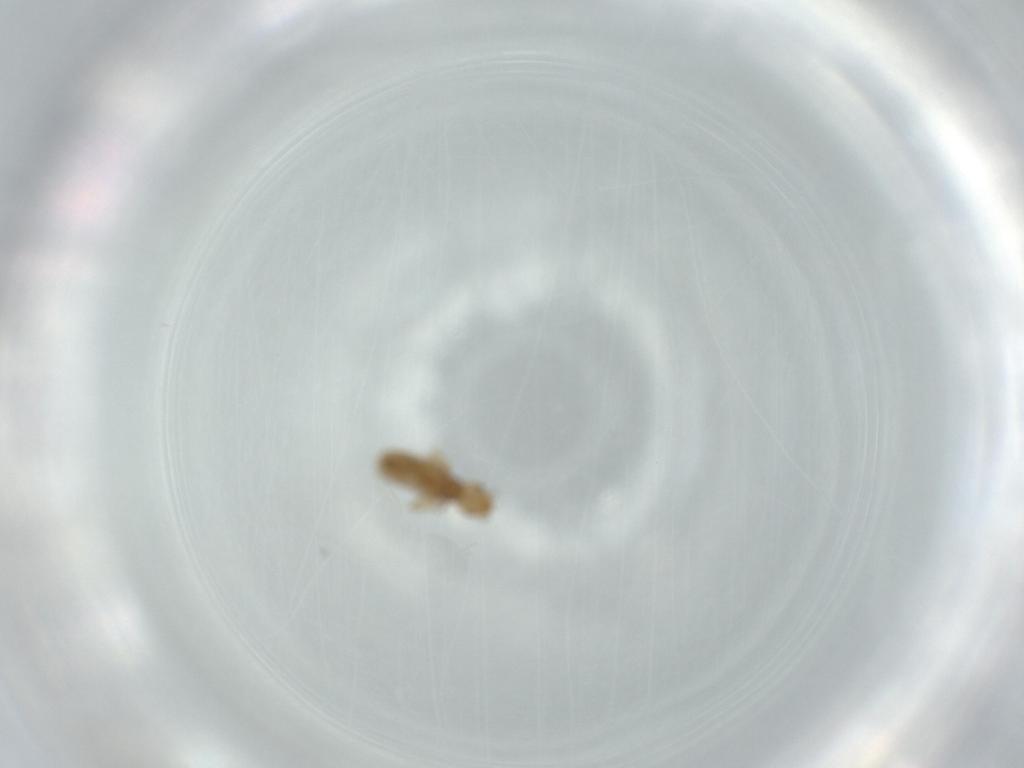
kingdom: Animalia
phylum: Arthropoda
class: Insecta
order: Psocodea
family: Liposcelididae
